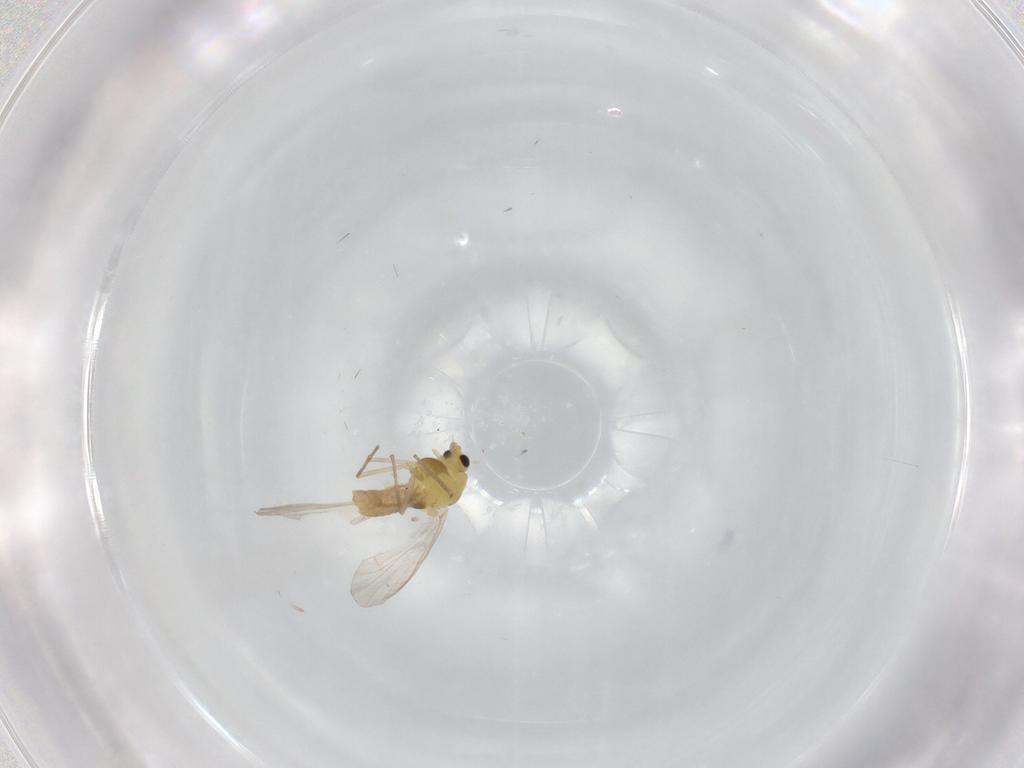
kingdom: Animalia
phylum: Arthropoda
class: Insecta
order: Diptera
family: Chironomidae
